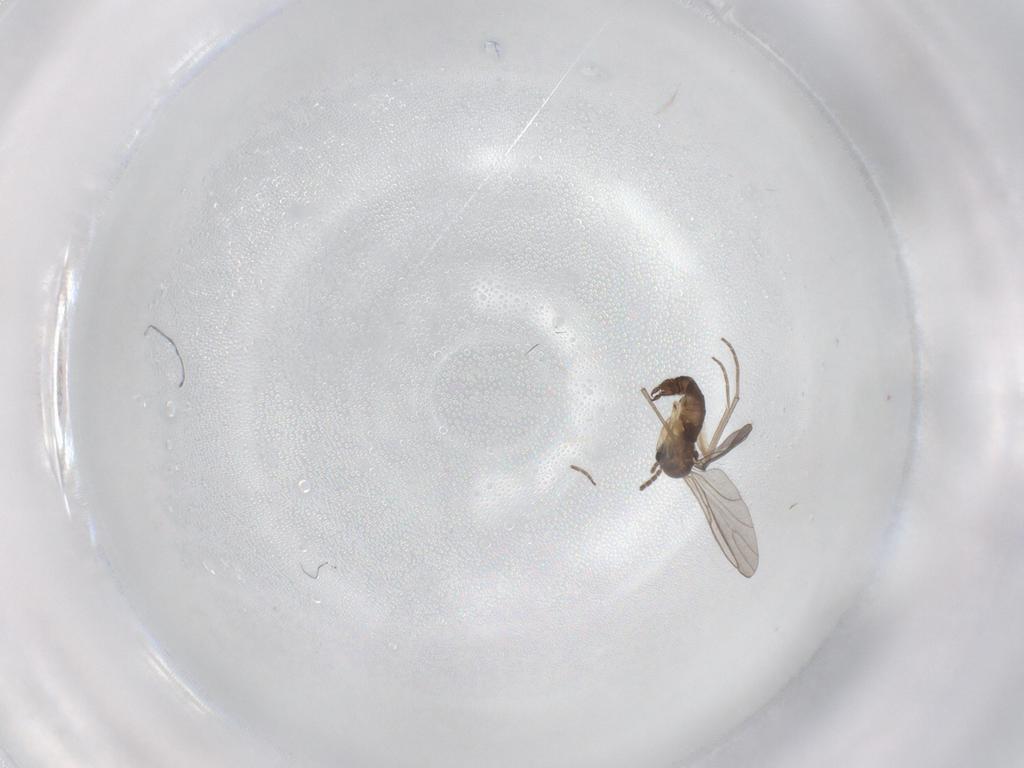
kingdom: Animalia
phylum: Arthropoda
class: Insecta
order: Diptera
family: Sciaridae
